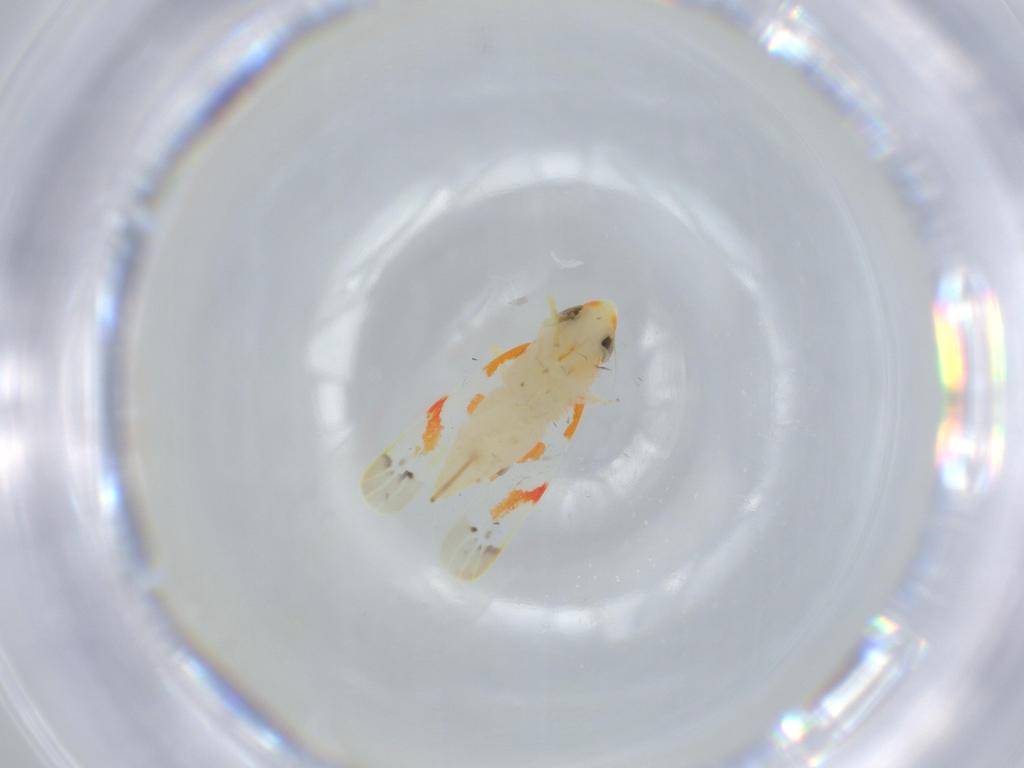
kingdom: Animalia
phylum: Arthropoda
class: Insecta
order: Hemiptera
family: Cicadellidae
